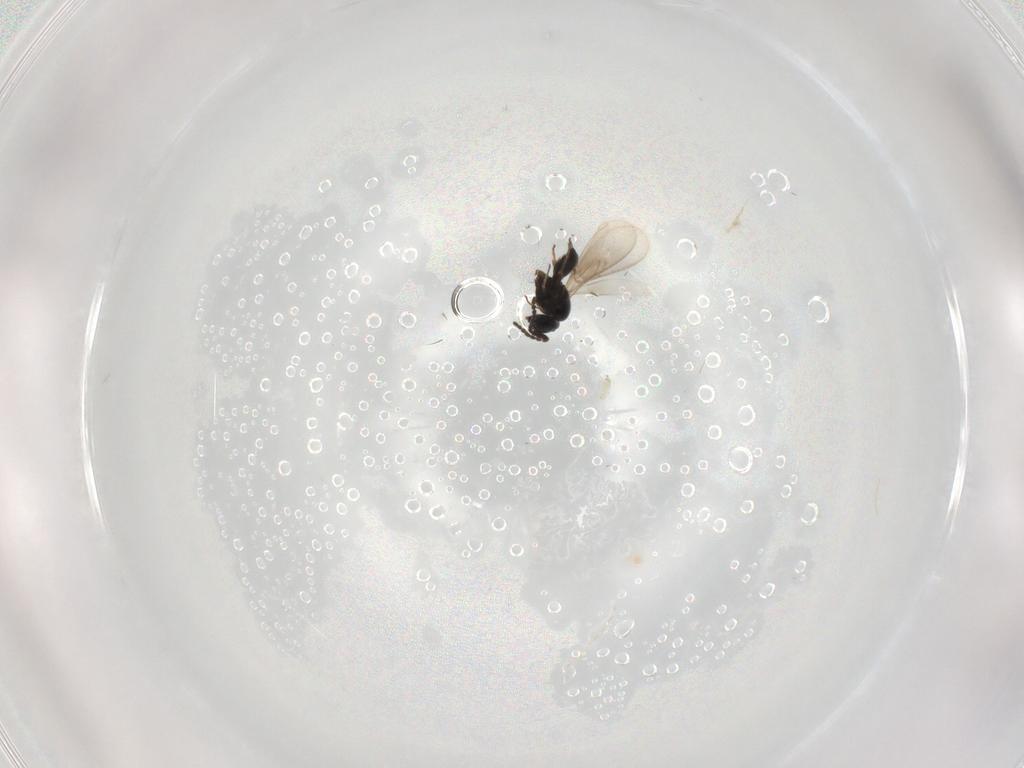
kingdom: Animalia
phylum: Arthropoda
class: Insecta
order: Hymenoptera
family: Scelionidae
